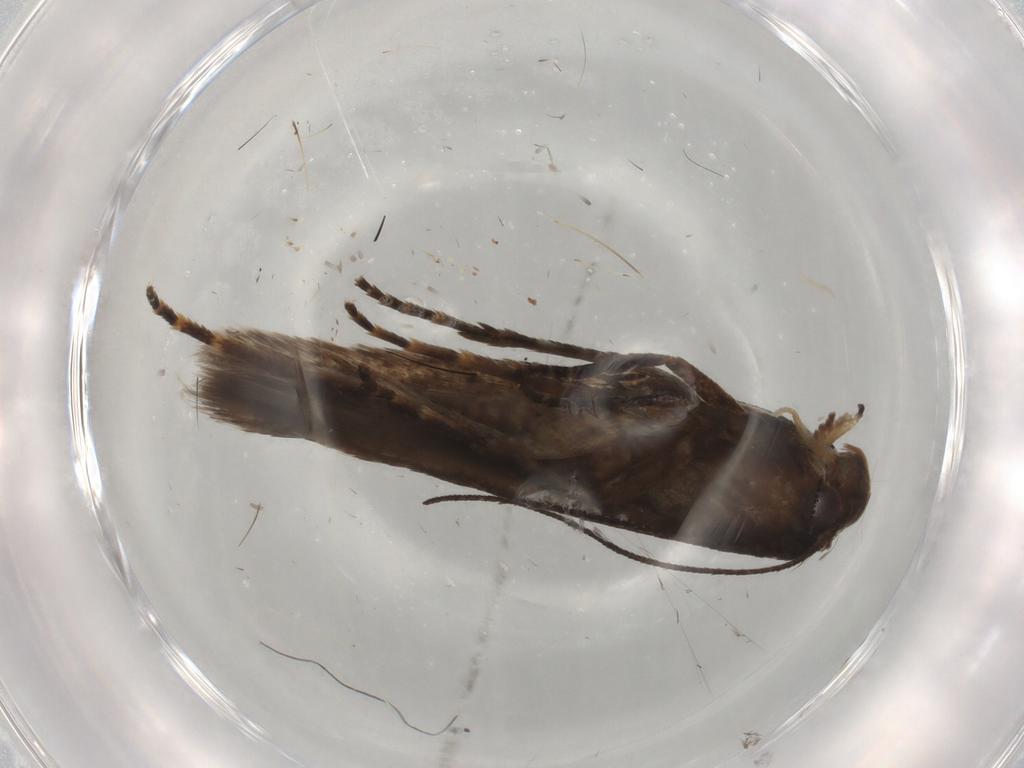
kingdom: Animalia
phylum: Arthropoda
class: Insecta
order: Lepidoptera
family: Gelechiidae
